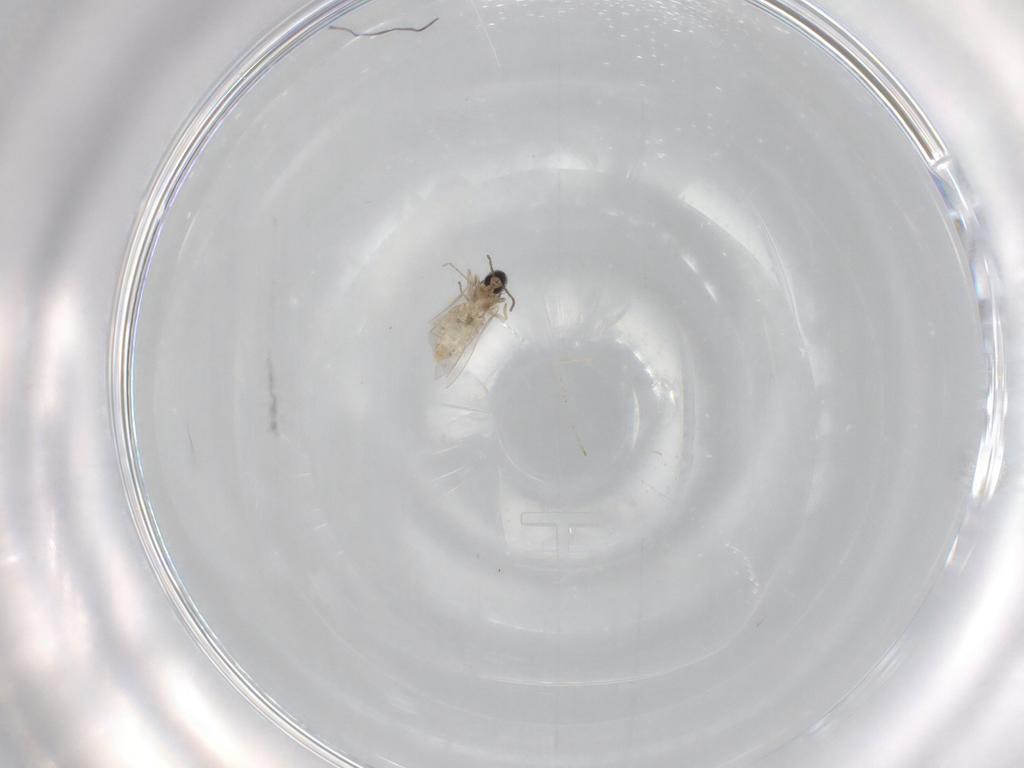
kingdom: Animalia
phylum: Arthropoda
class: Insecta
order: Diptera
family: Cecidomyiidae
